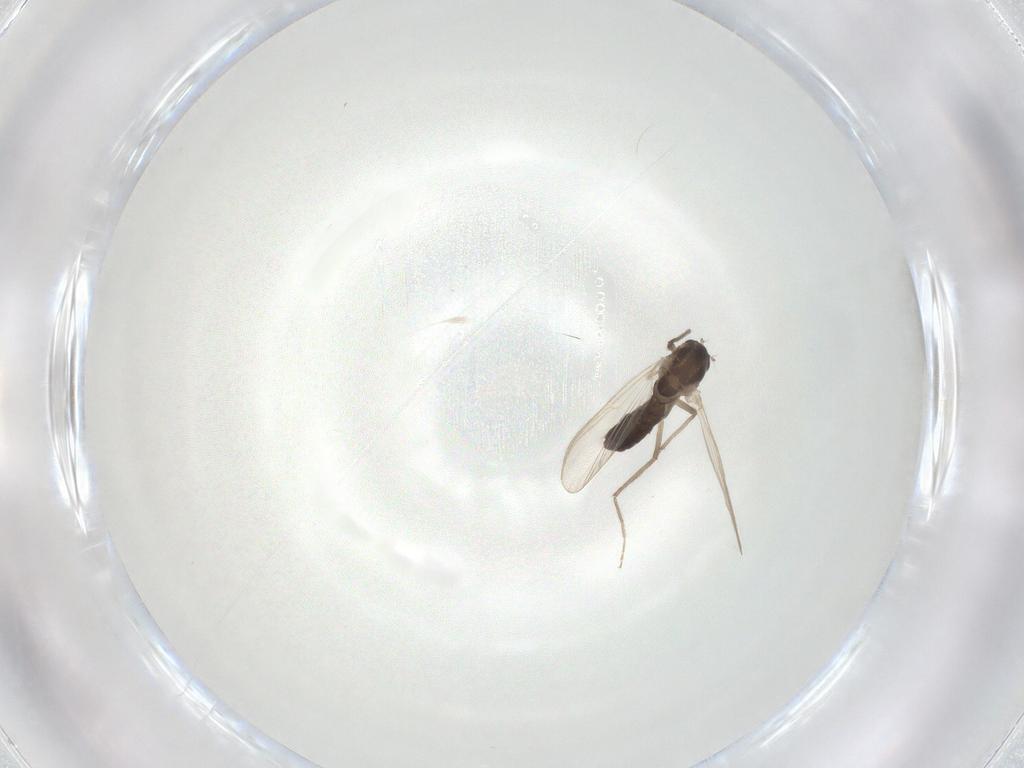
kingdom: Animalia
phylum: Arthropoda
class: Insecta
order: Diptera
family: Chironomidae
